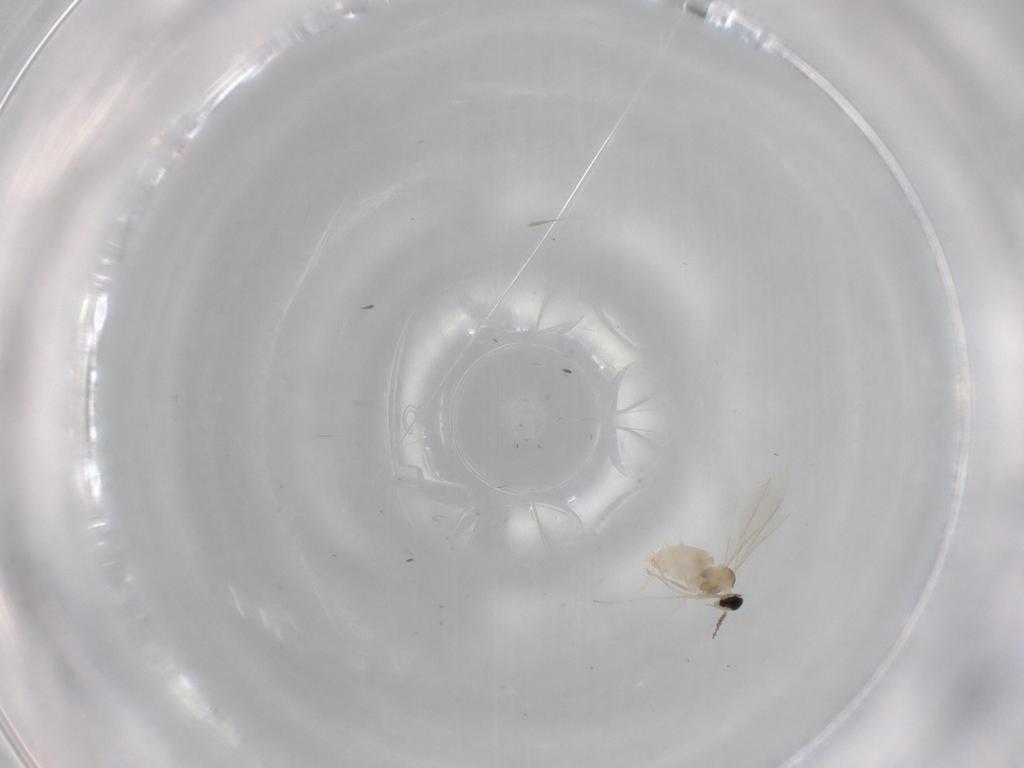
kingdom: Animalia
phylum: Arthropoda
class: Insecta
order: Diptera
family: Cecidomyiidae
